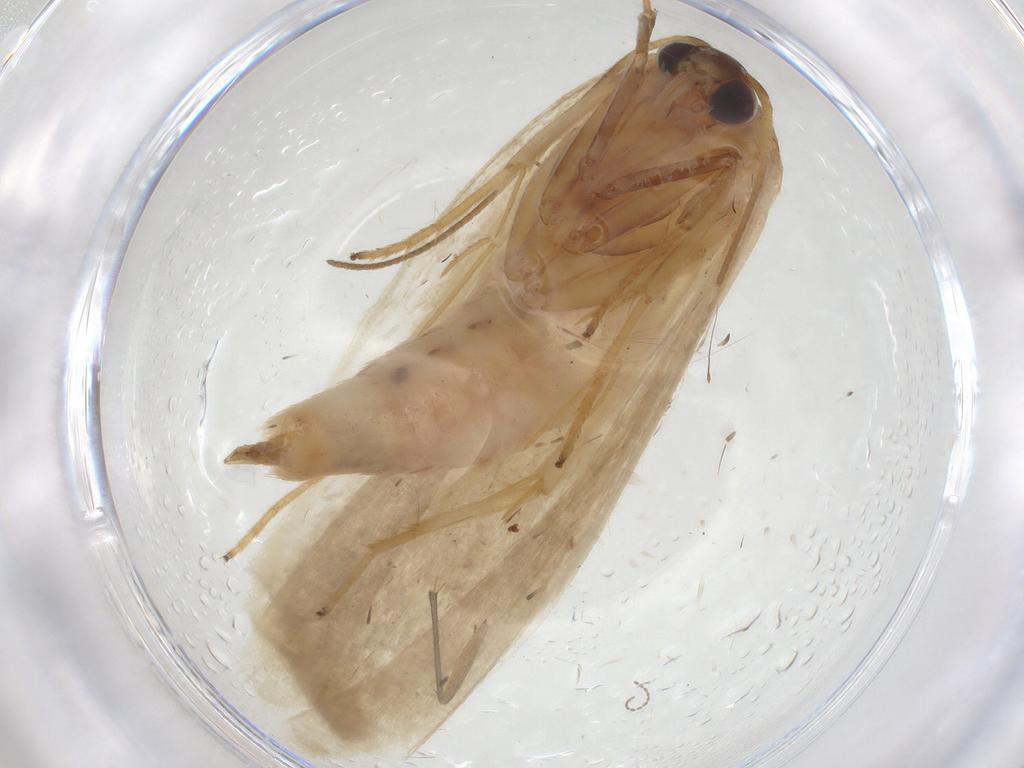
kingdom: Animalia
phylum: Arthropoda
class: Insecta
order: Lepidoptera
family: Xyloryctidae
